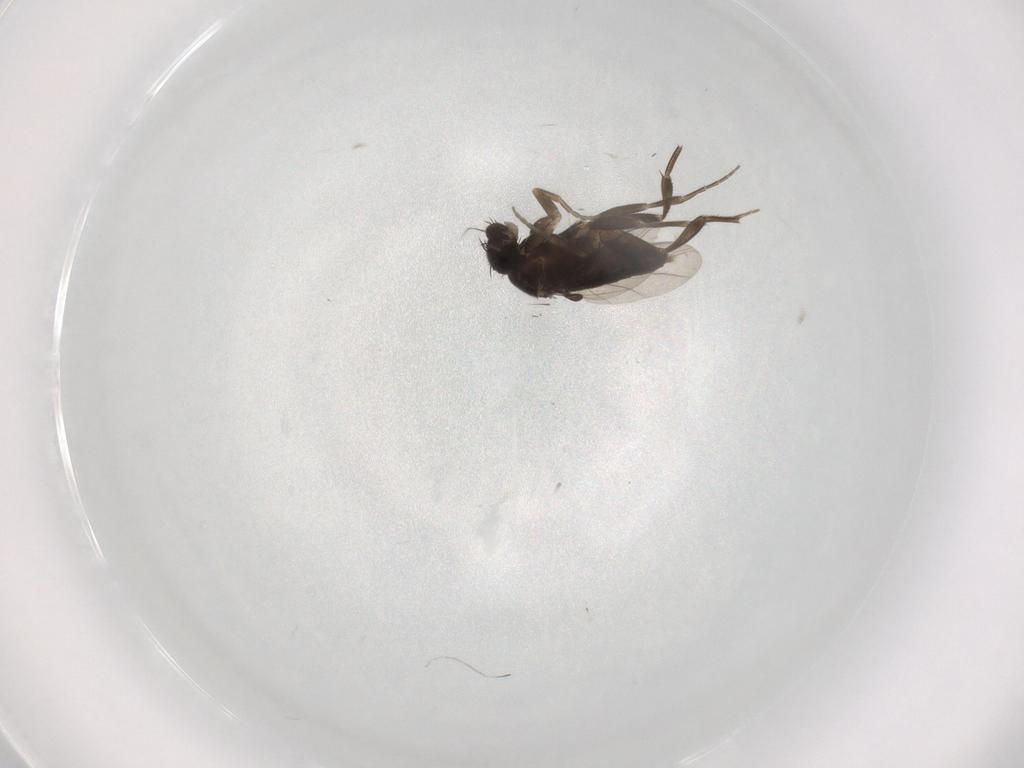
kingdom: Animalia
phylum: Arthropoda
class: Insecta
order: Diptera
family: Phoridae
